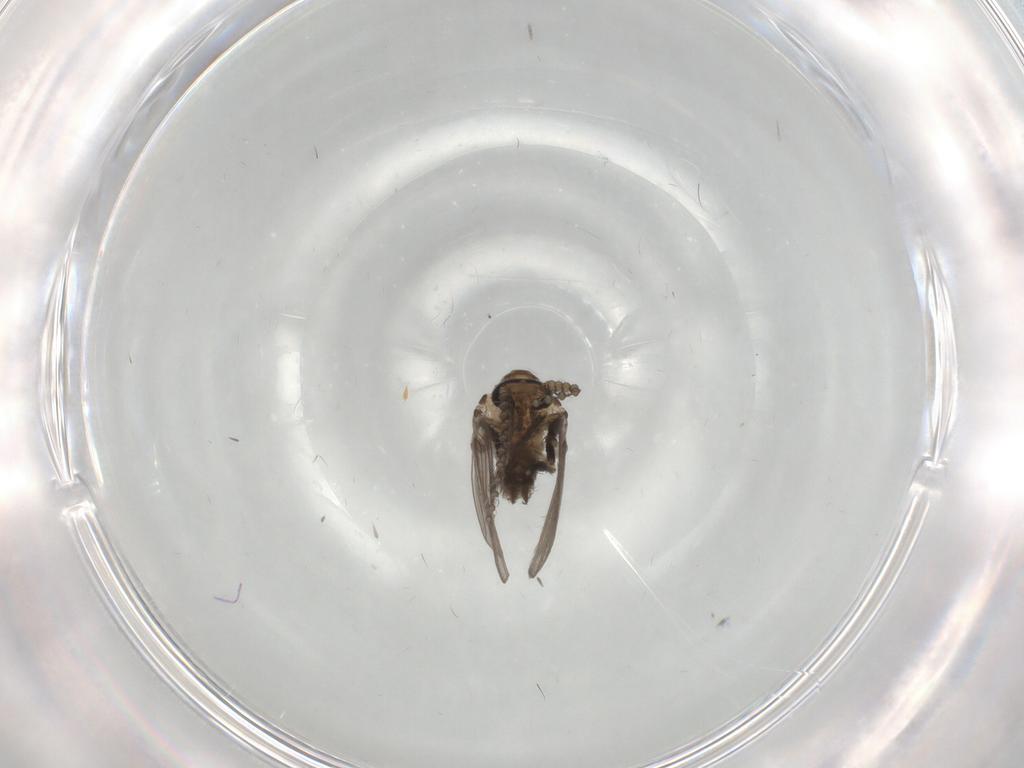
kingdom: Animalia
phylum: Arthropoda
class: Insecta
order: Diptera
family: Psychodidae
